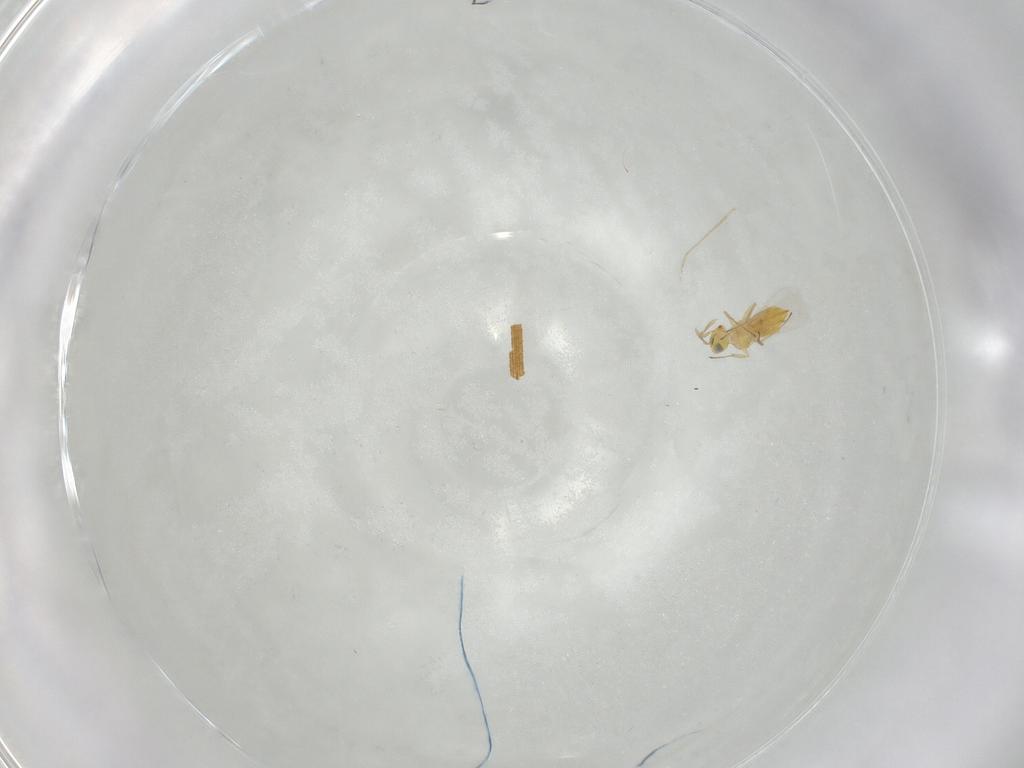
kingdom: Animalia
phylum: Arthropoda
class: Insecta
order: Hymenoptera
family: Aphelinidae
